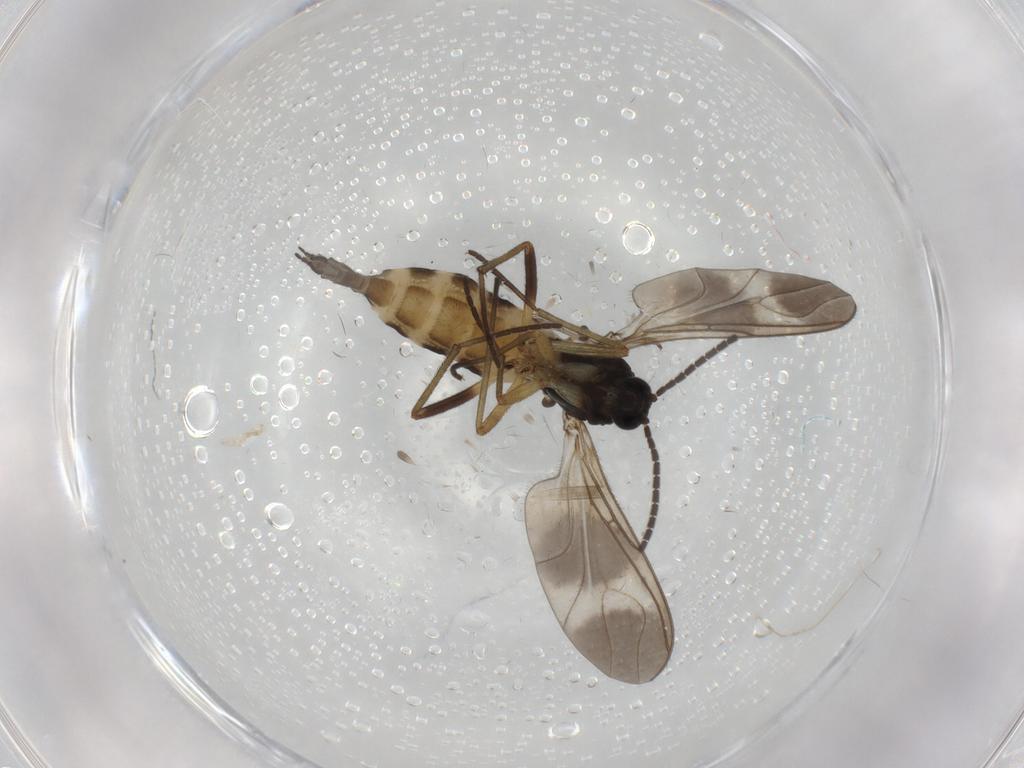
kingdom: Animalia
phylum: Arthropoda
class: Insecta
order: Diptera
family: Sciaridae
